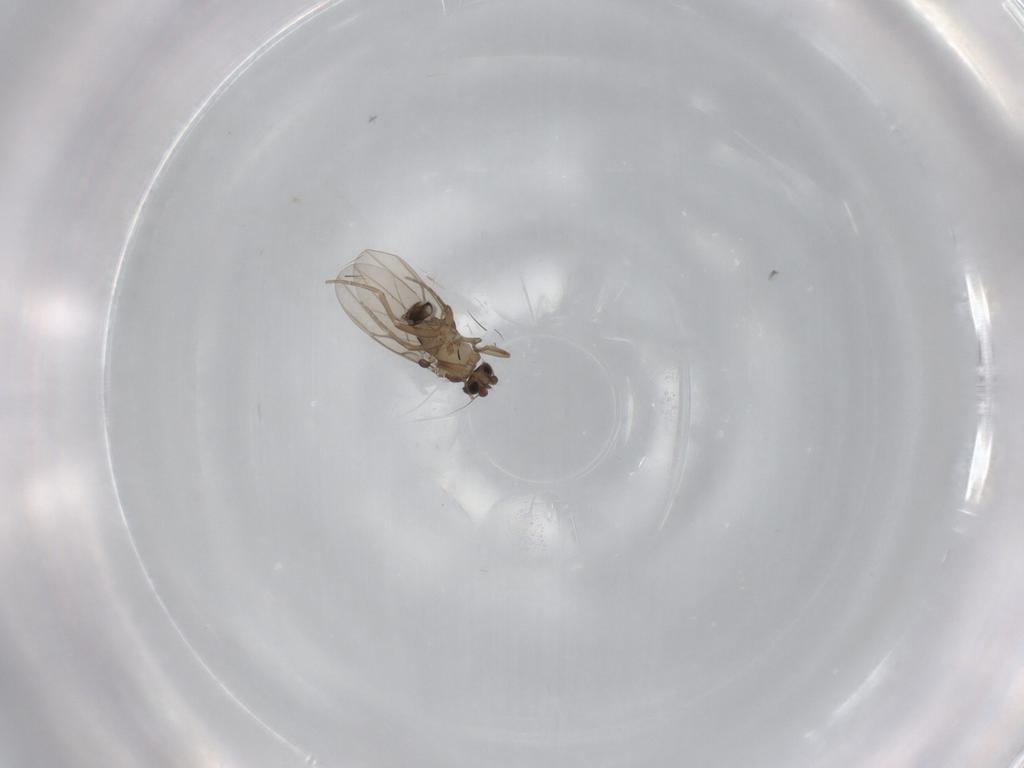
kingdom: Animalia
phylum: Arthropoda
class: Insecta
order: Diptera
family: Phoridae
